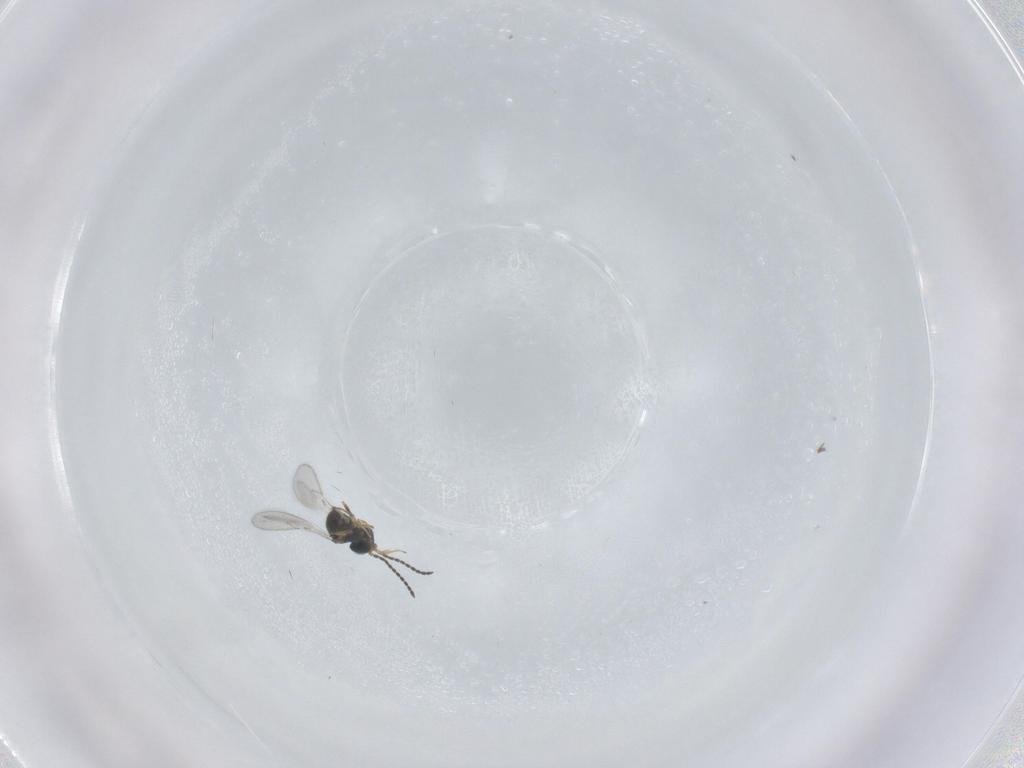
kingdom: Animalia
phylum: Arthropoda
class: Insecta
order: Hymenoptera
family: Scelionidae
